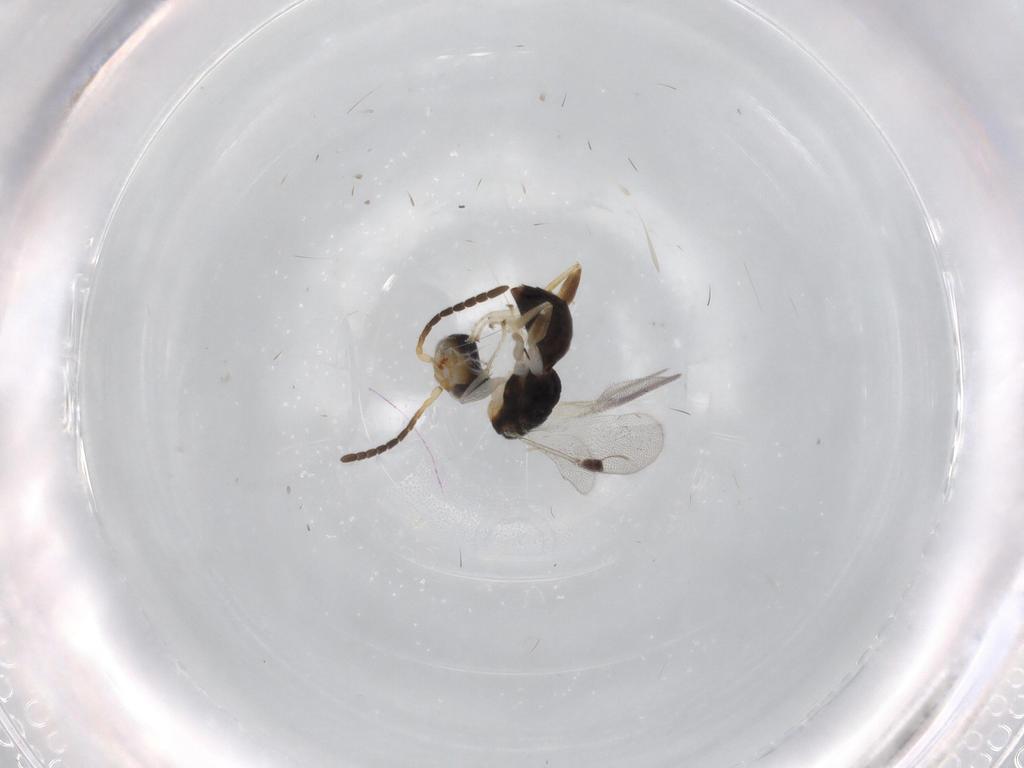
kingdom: Animalia
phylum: Arthropoda
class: Insecta
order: Hymenoptera
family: Dryinidae
